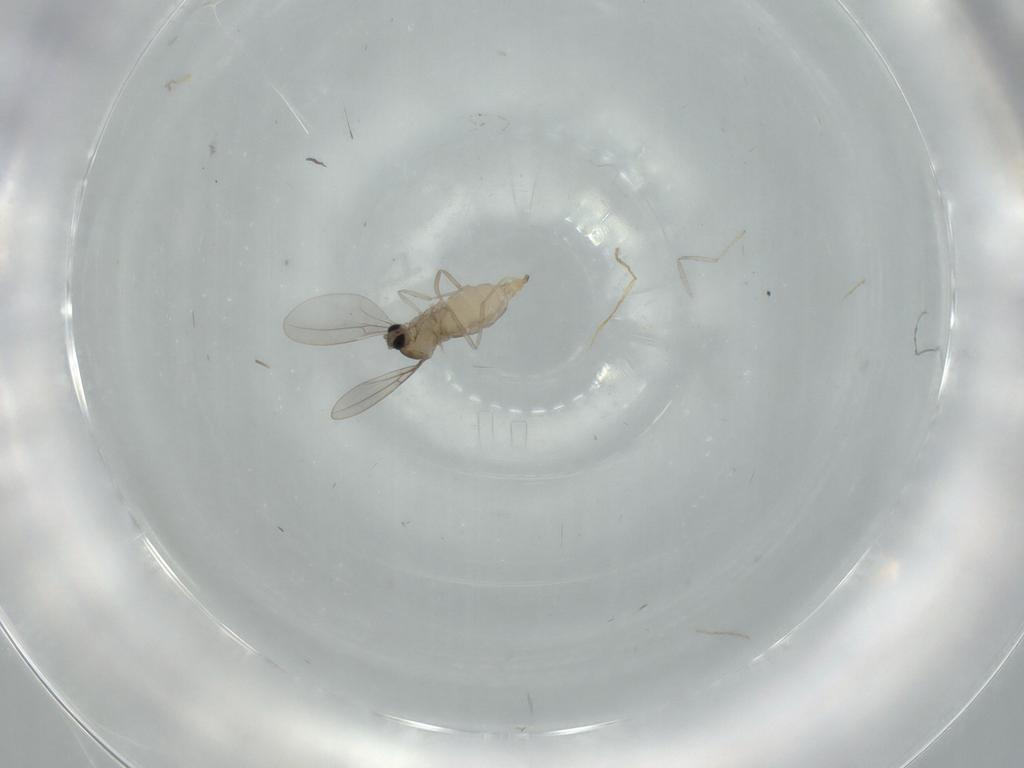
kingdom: Animalia
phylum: Arthropoda
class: Insecta
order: Diptera
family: Cecidomyiidae
